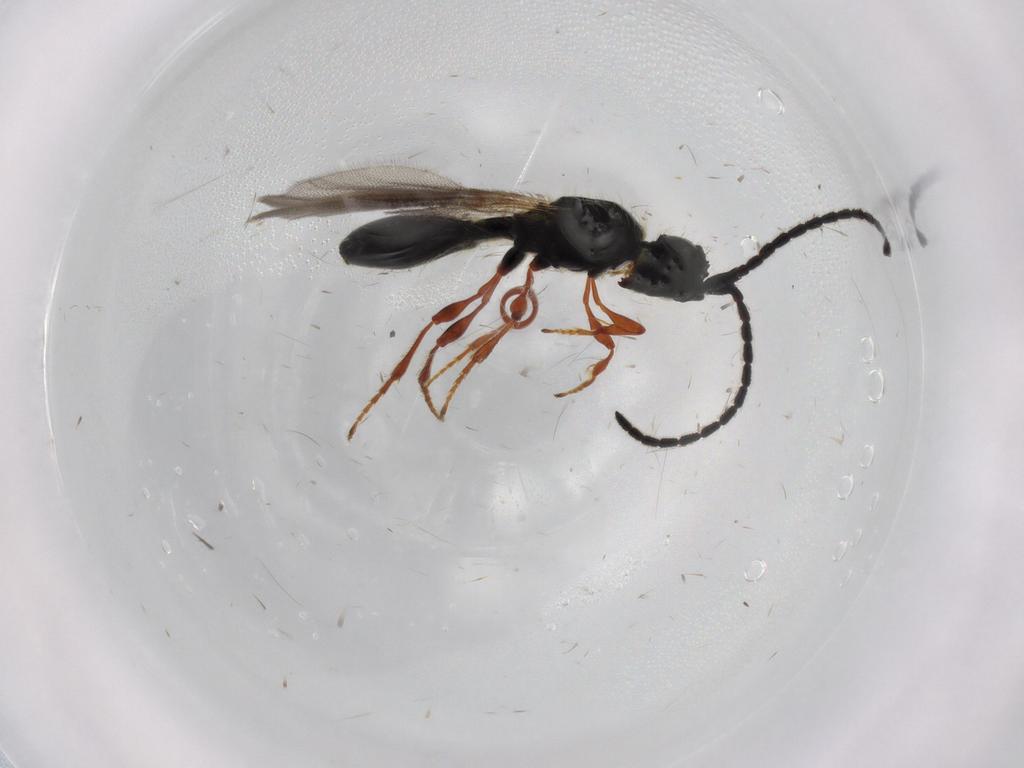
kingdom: Animalia
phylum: Arthropoda
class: Insecta
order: Hymenoptera
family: Diapriidae
